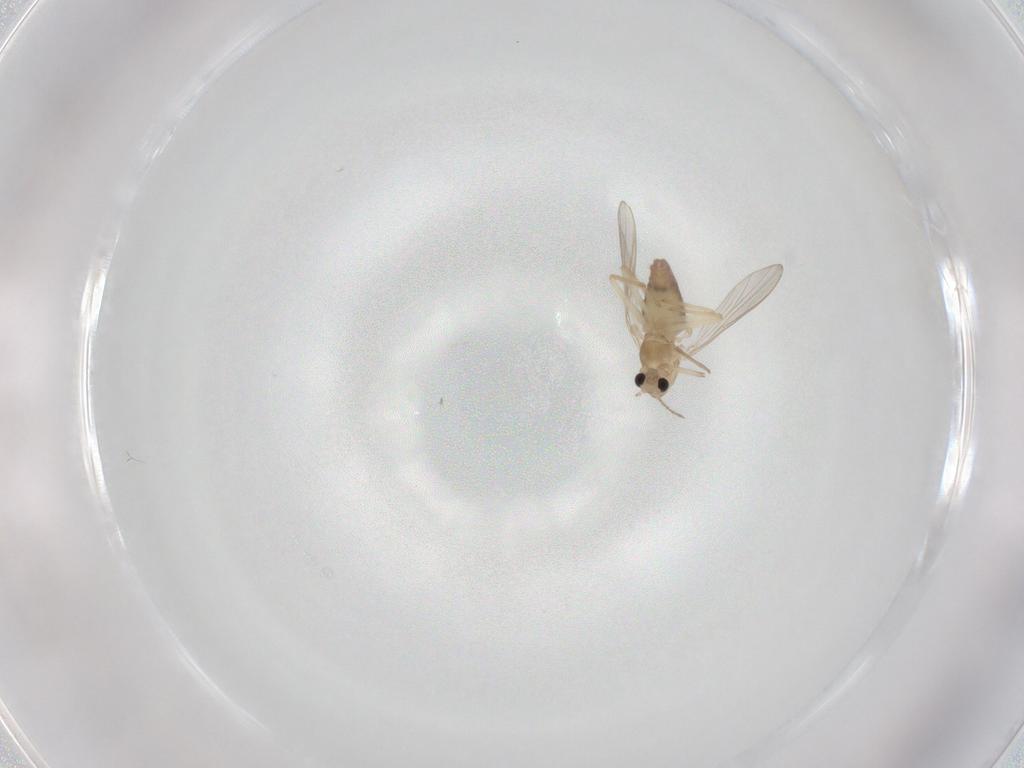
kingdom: Animalia
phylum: Arthropoda
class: Insecta
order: Diptera
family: Chironomidae
